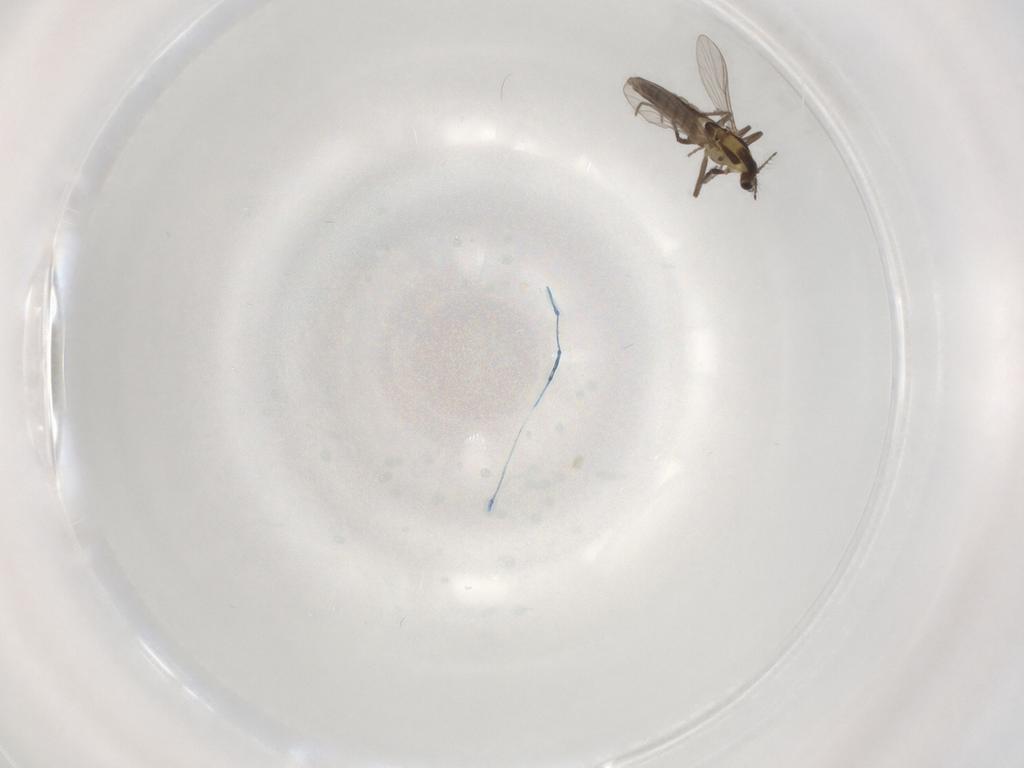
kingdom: Animalia
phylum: Arthropoda
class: Insecta
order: Diptera
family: Chironomidae
